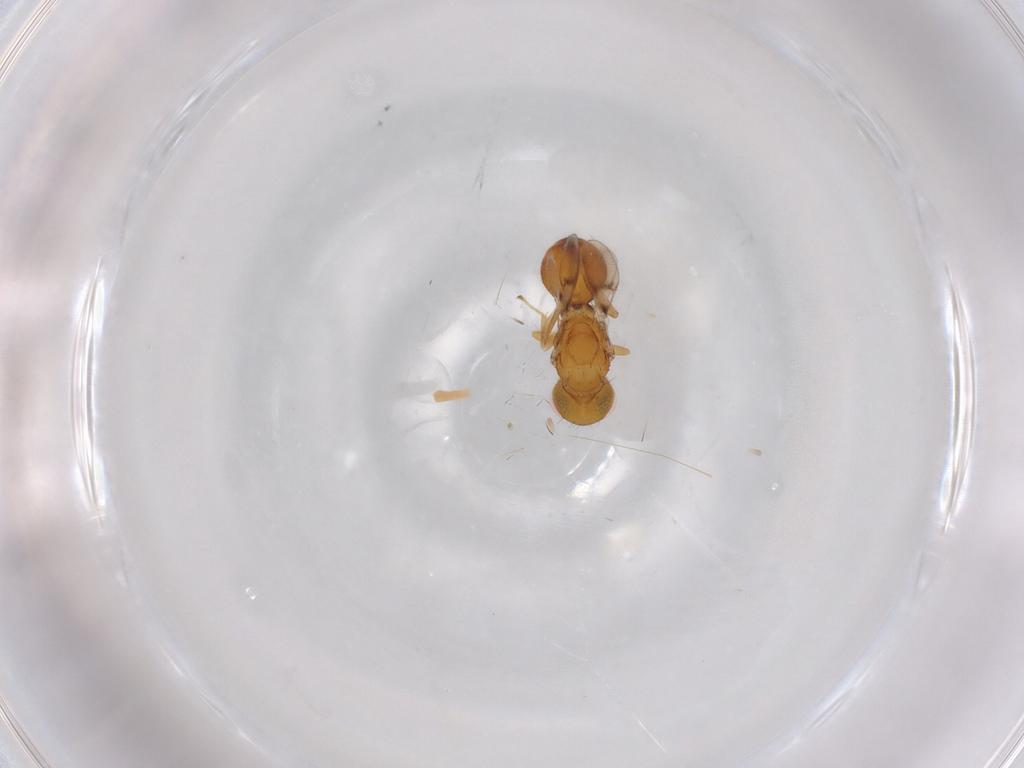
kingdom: Animalia
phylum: Arthropoda
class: Insecta
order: Hymenoptera
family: Eulophidae
